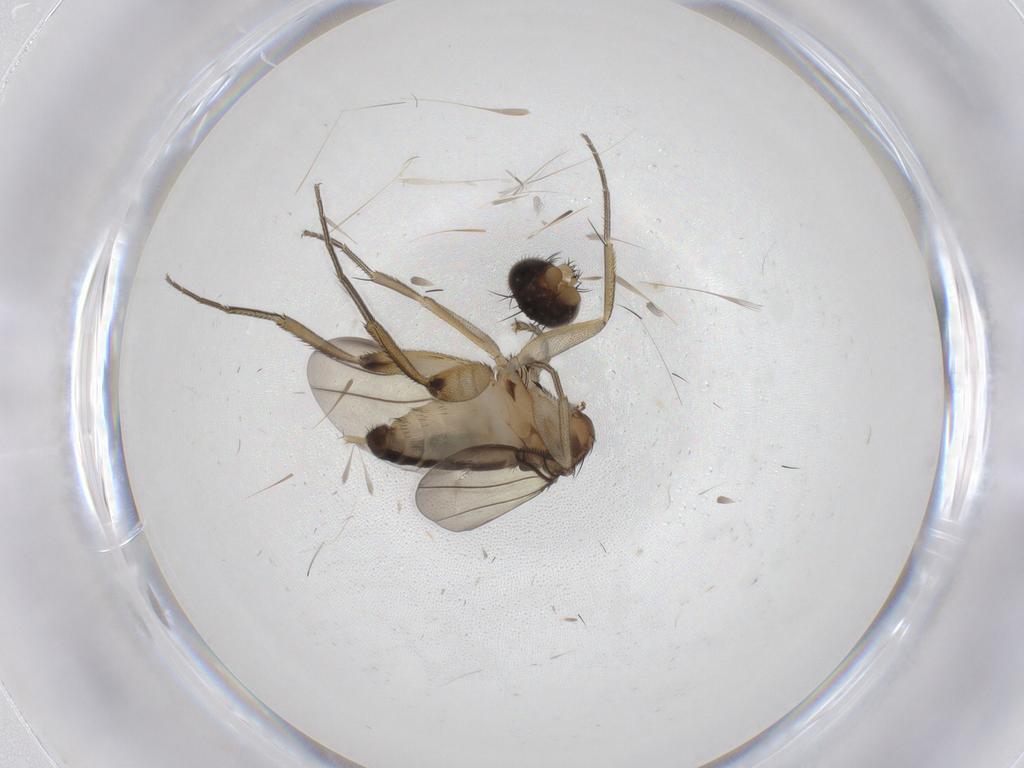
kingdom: Animalia
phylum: Arthropoda
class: Insecta
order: Diptera
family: Phoridae
